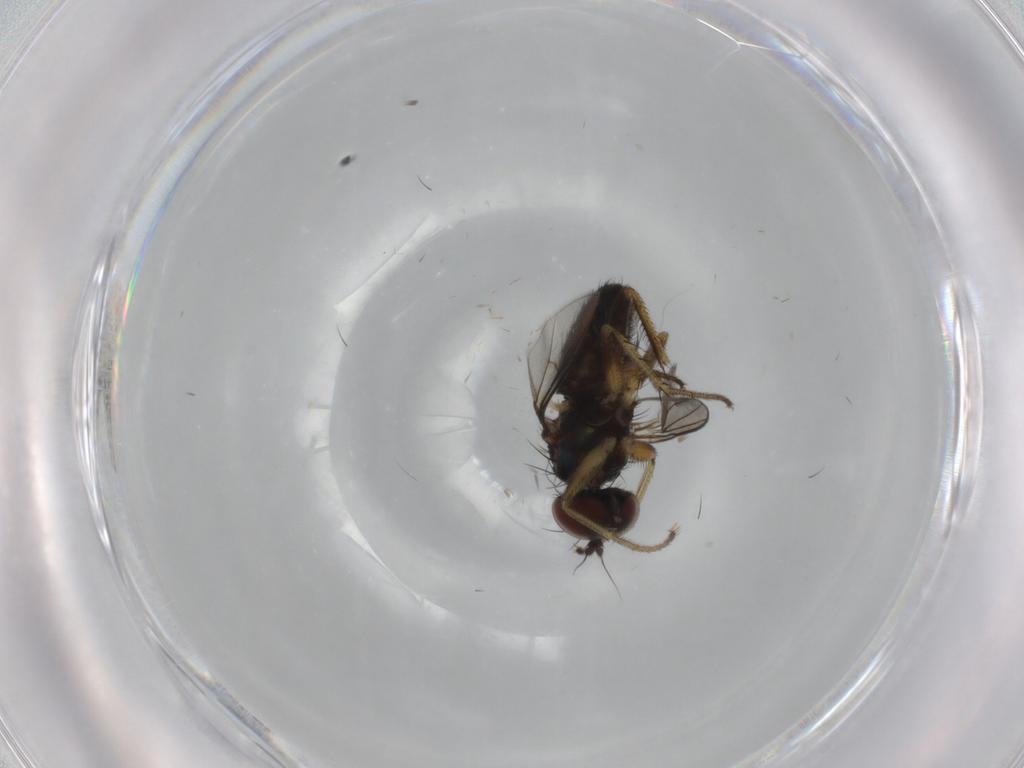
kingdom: Animalia
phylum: Arthropoda
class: Insecta
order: Diptera
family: Dolichopodidae
